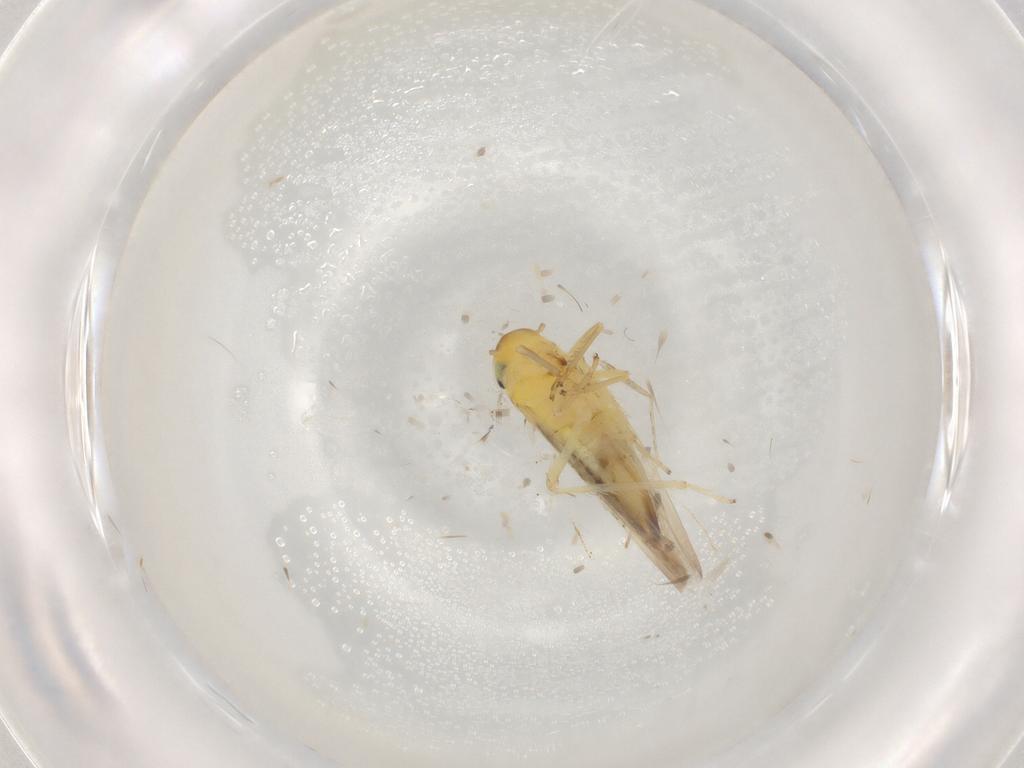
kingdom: Animalia
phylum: Arthropoda
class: Insecta
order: Hemiptera
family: Cicadellidae
